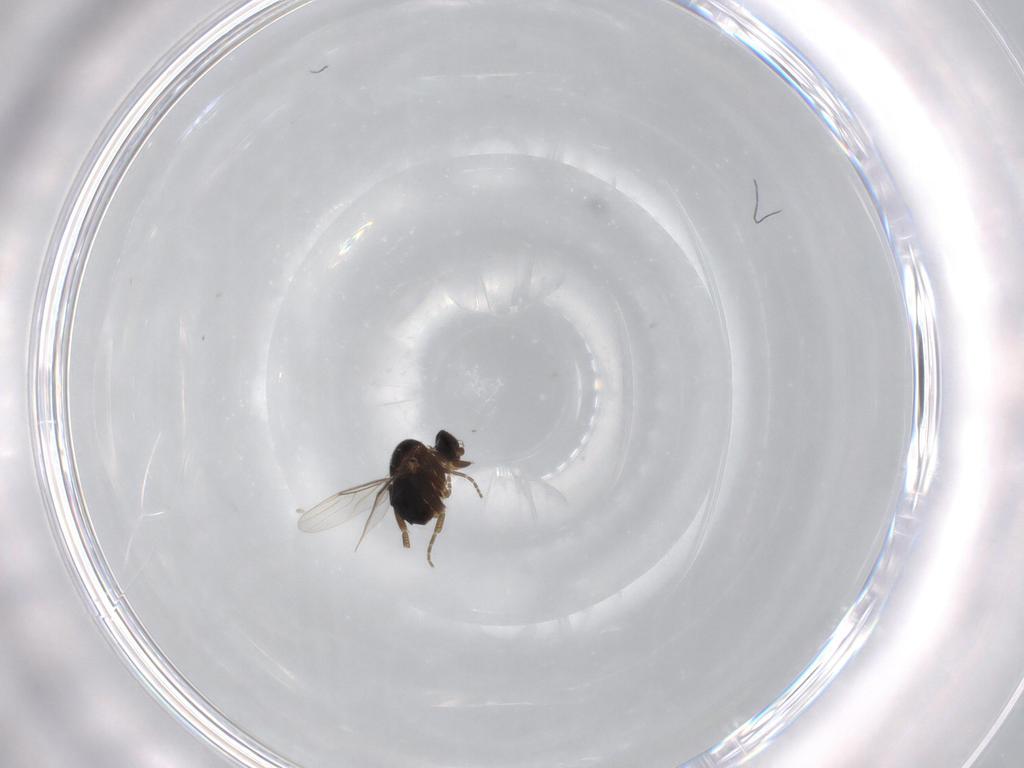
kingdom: Animalia
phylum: Arthropoda
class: Insecta
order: Diptera
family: Phoridae
